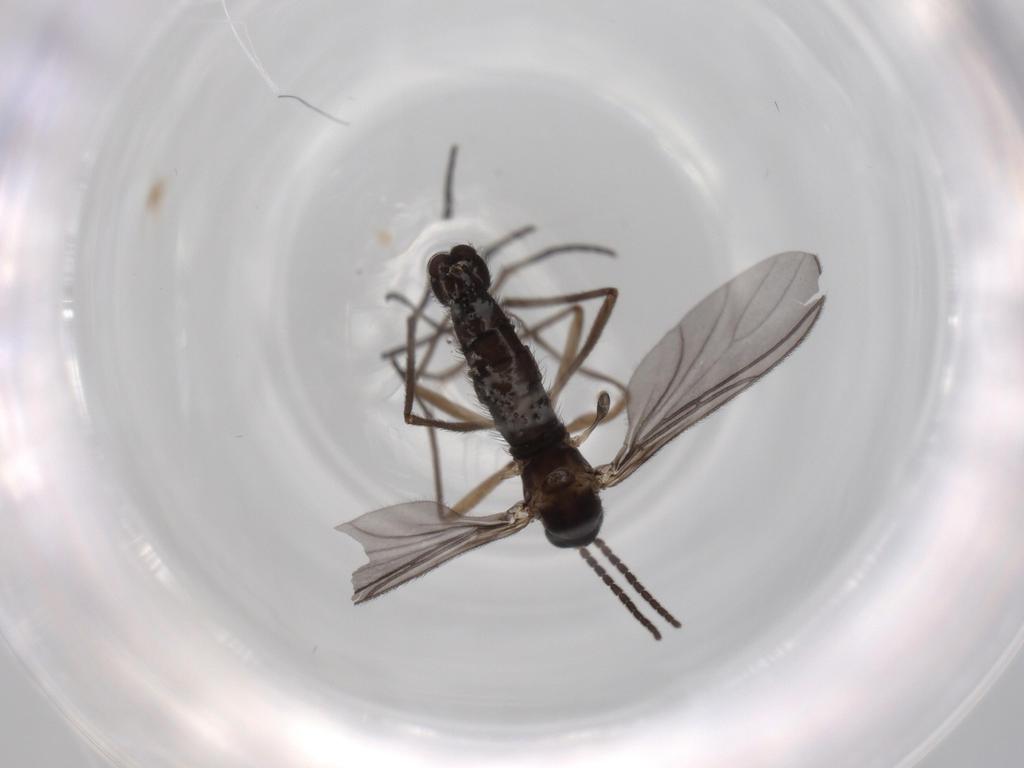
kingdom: Animalia
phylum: Arthropoda
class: Insecta
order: Diptera
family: Sciaridae
